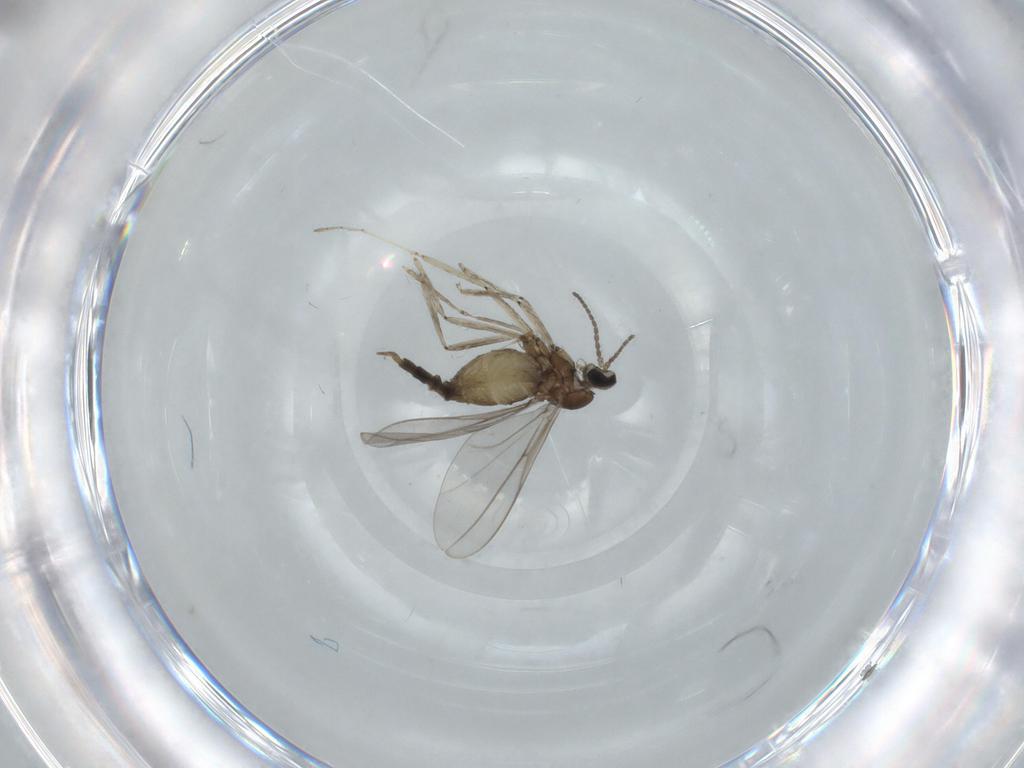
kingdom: Animalia
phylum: Arthropoda
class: Insecta
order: Diptera
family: Cecidomyiidae
